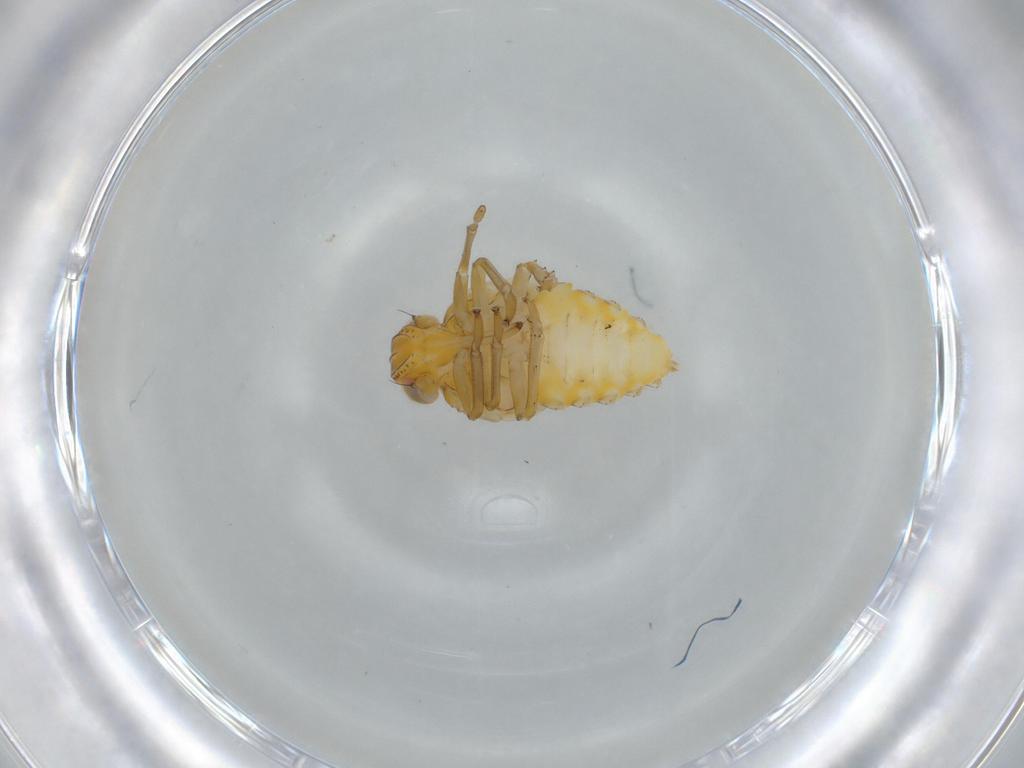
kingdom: Animalia
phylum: Arthropoda
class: Insecta
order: Hemiptera
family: Issidae
